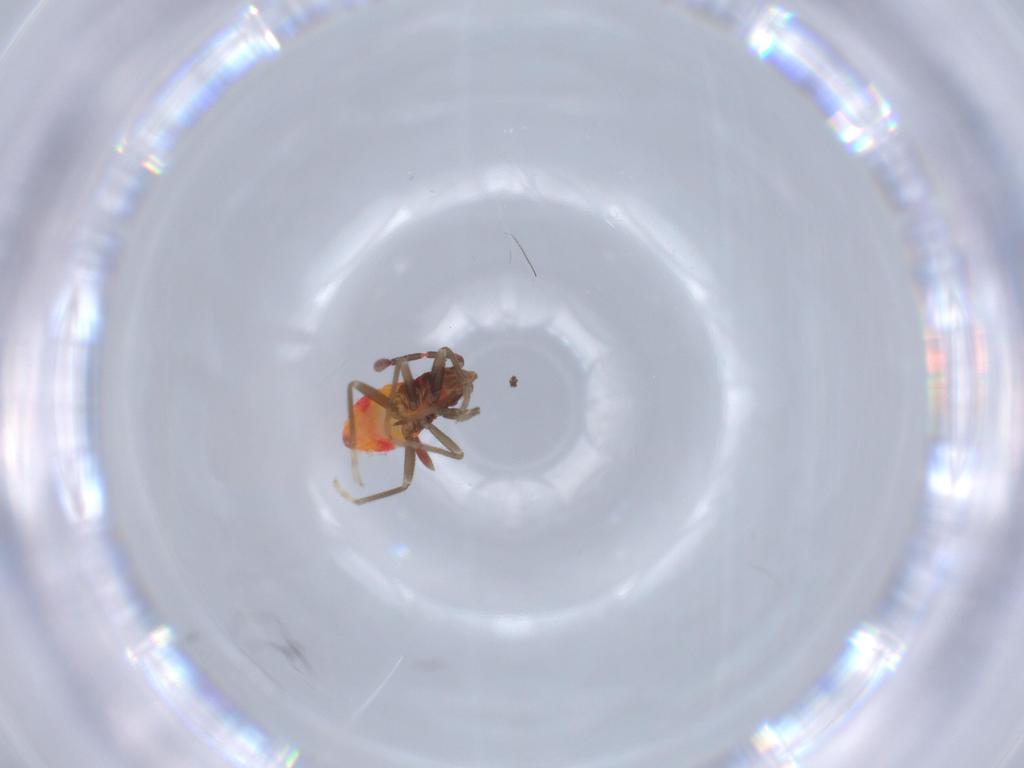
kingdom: Animalia
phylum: Arthropoda
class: Insecta
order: Hemiptera
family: Rhyparochromidae
